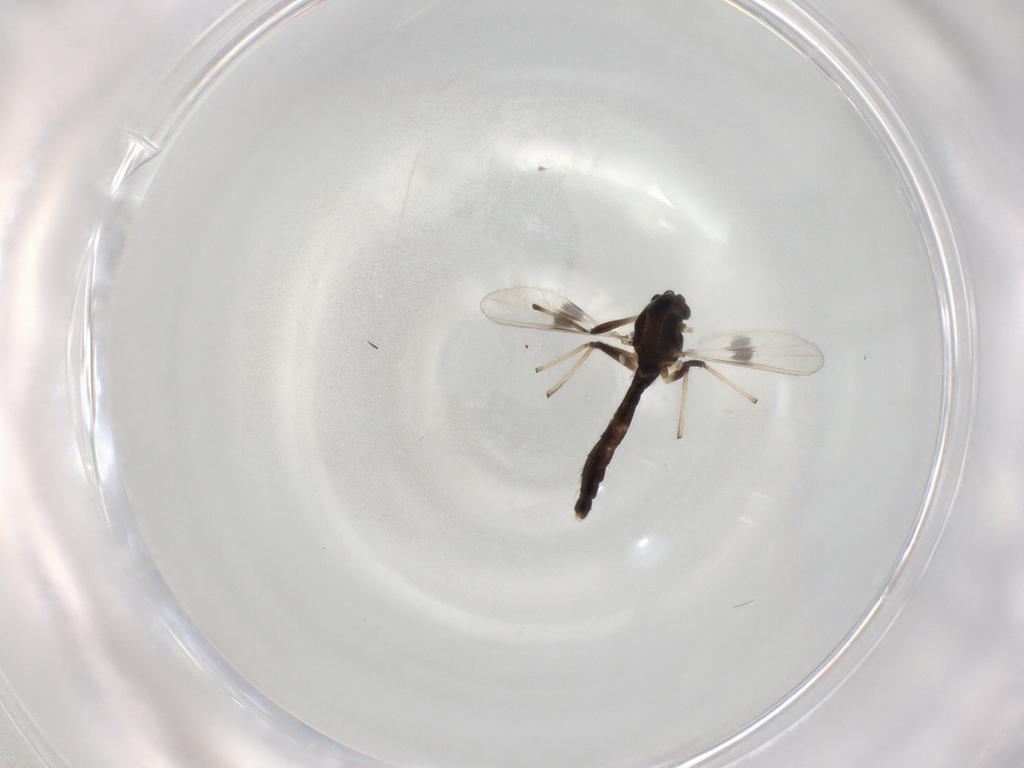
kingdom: Animalia
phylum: Arthropoda
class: Insecta
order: Diptera
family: Chironomidae
